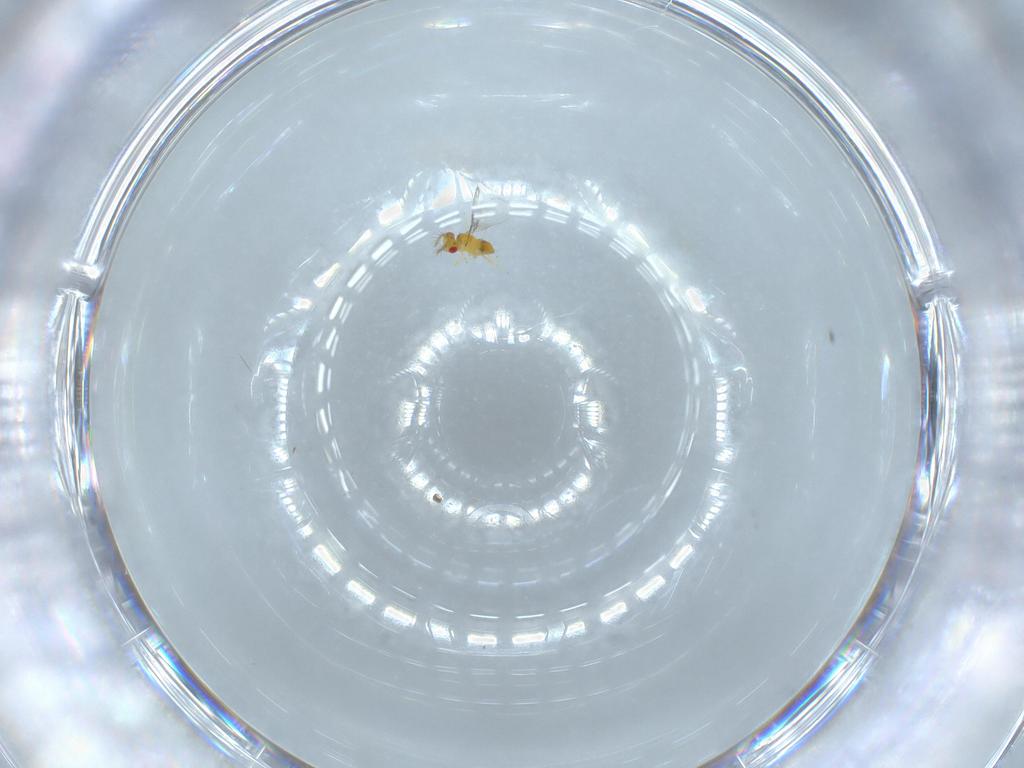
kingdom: Animalia
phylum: Arthropoda
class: Insecta
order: Hymenoptera
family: Trichogrammatidae
